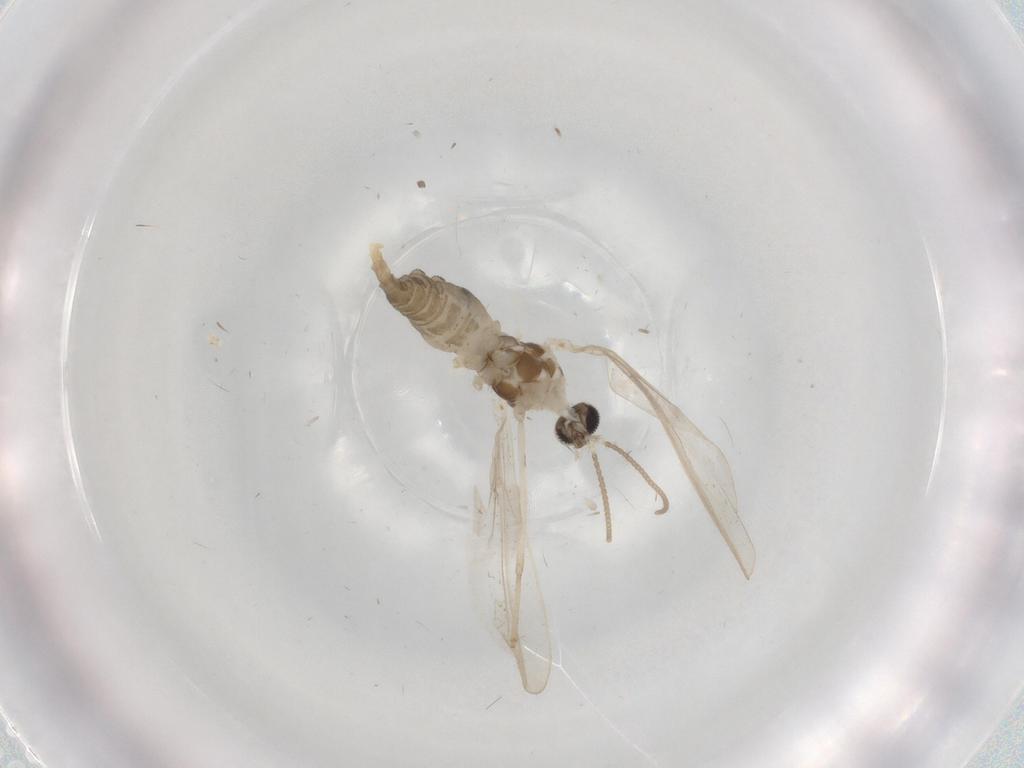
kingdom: Animalia
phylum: Arthropoda
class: Insecta
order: Diptera
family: Cecidomyiidae
